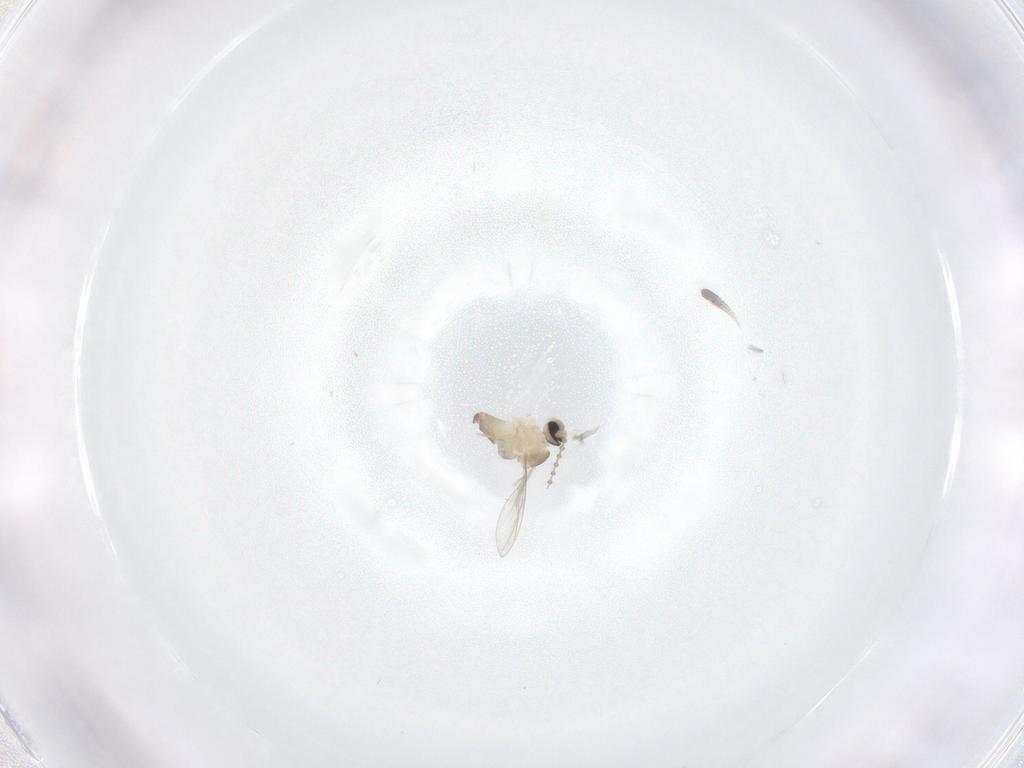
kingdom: Animalia
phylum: Arthropoda
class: Insecta
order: Diptera
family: Cecidomyiidae
